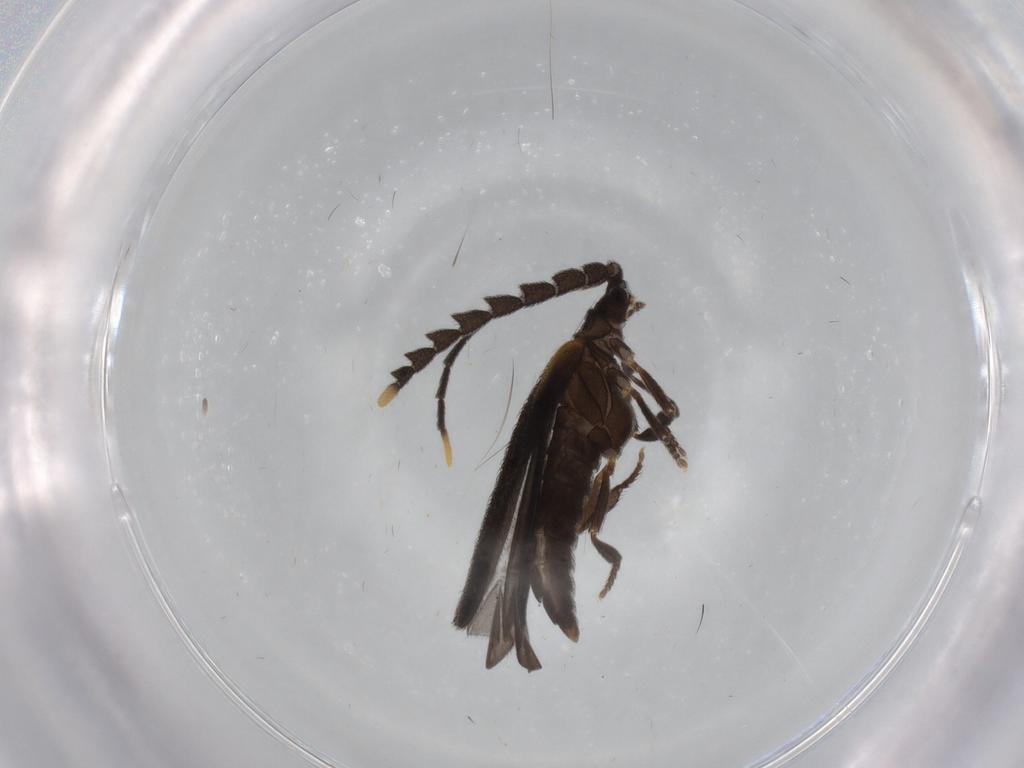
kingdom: Animalia
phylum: Arthropoda
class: Insecta
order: Coleoptera
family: Lycidae
